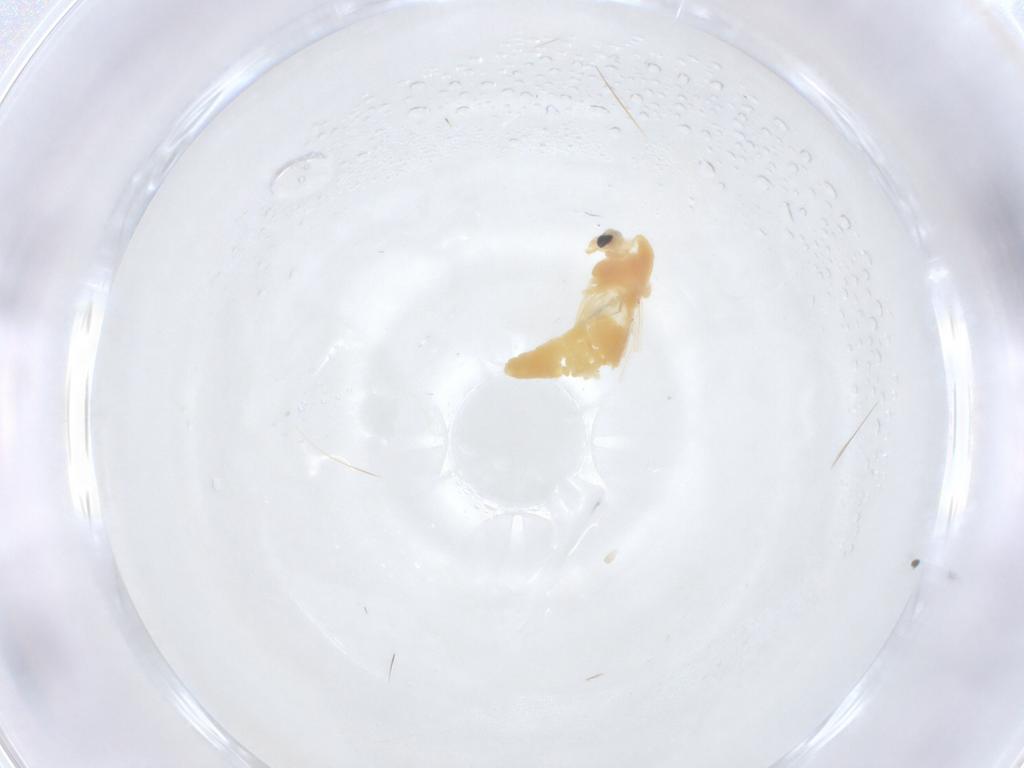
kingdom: Animalia
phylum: Arthropoda
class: Insecta
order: Diptera
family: Chironomidae
